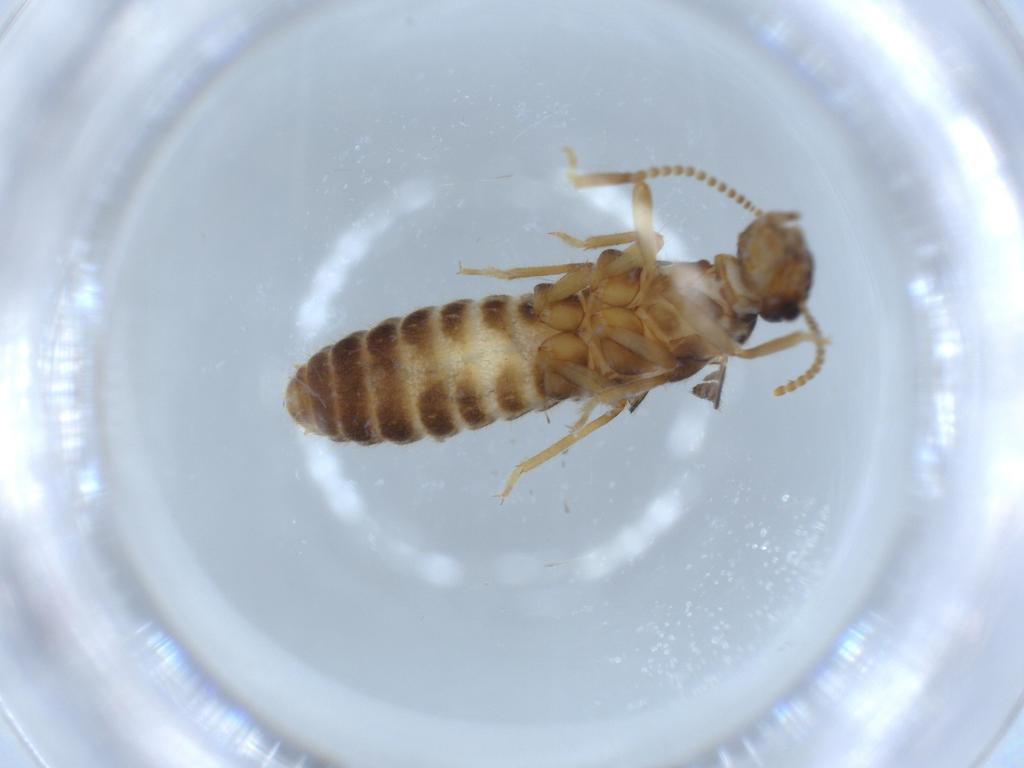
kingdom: Animalia
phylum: Arthropoda
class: Insecta
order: Blattodea
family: Termitidae
